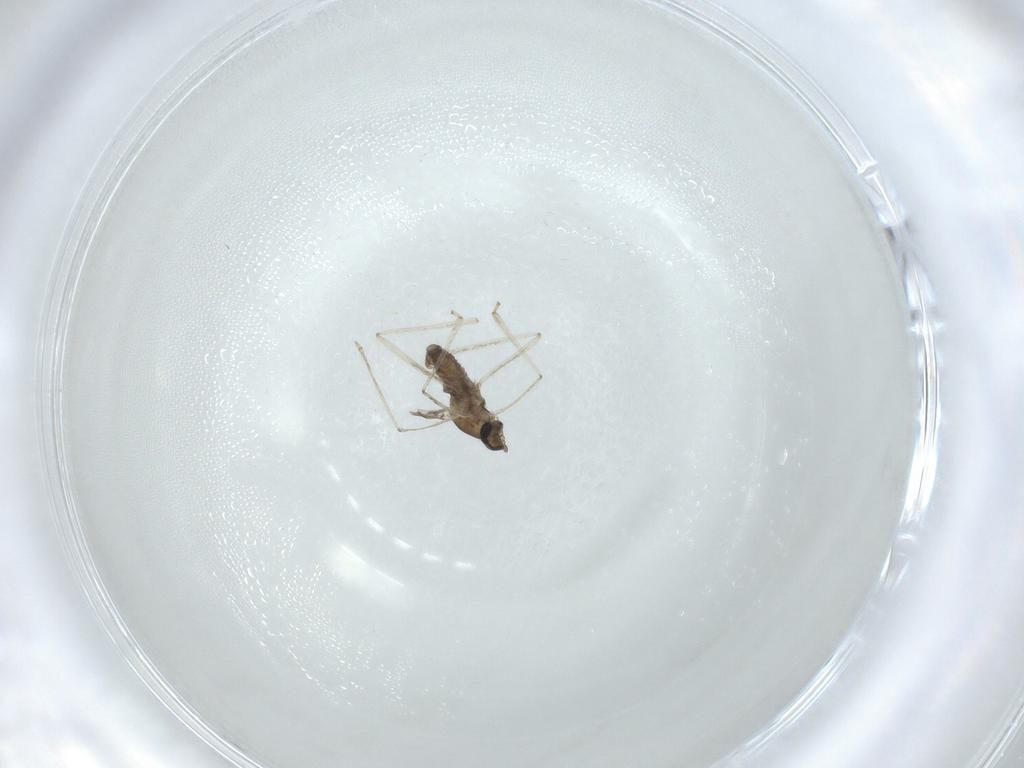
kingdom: Animalia
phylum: Arthropoda
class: Insecta
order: Diptera
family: Cecidomyiidae
